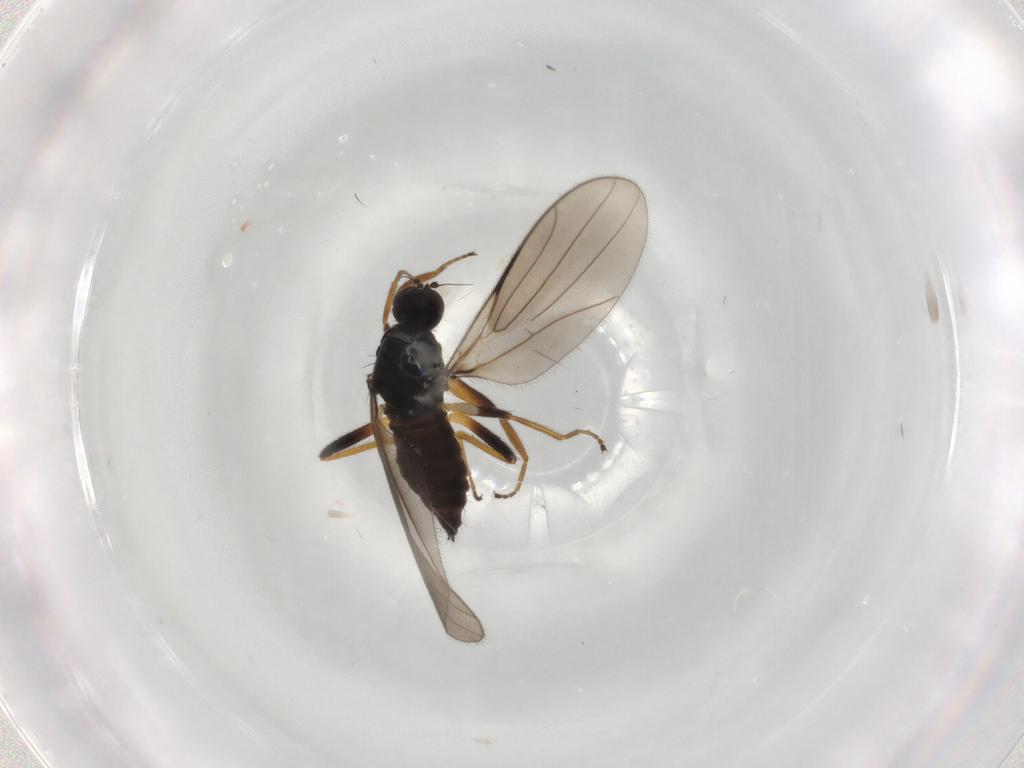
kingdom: Animalia
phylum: Arthropoda
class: Insecta
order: Diptera
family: Hybotidae
